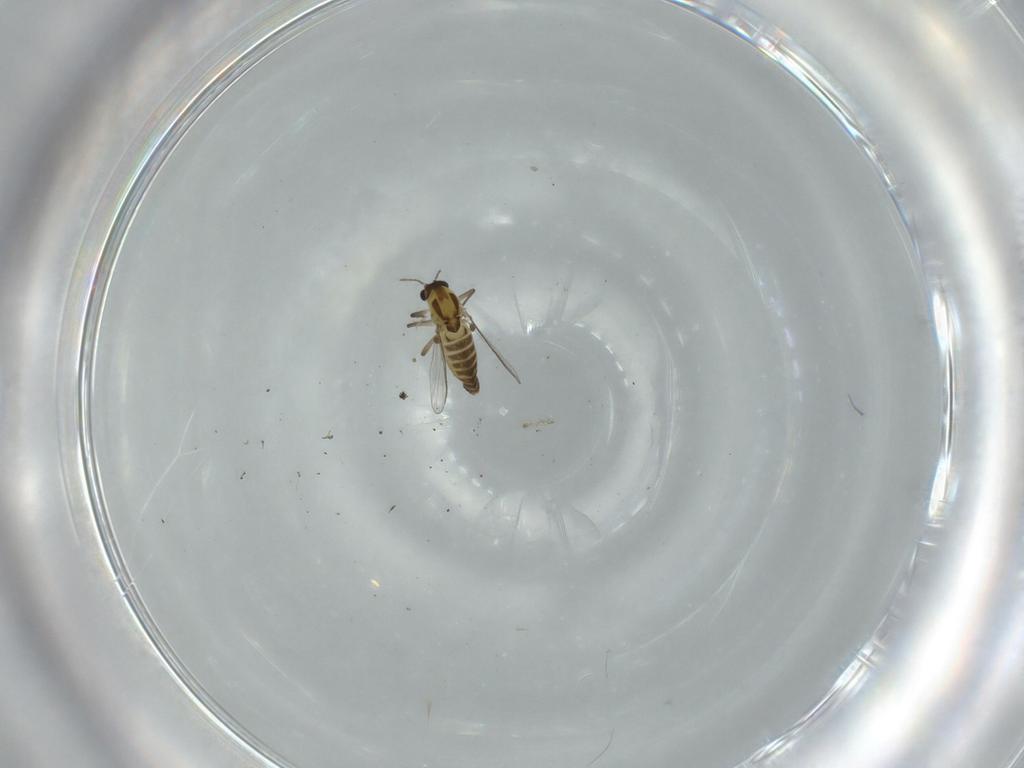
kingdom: Animalia
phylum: Arthropoda
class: Insecta
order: Diptera
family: Chironomidae
